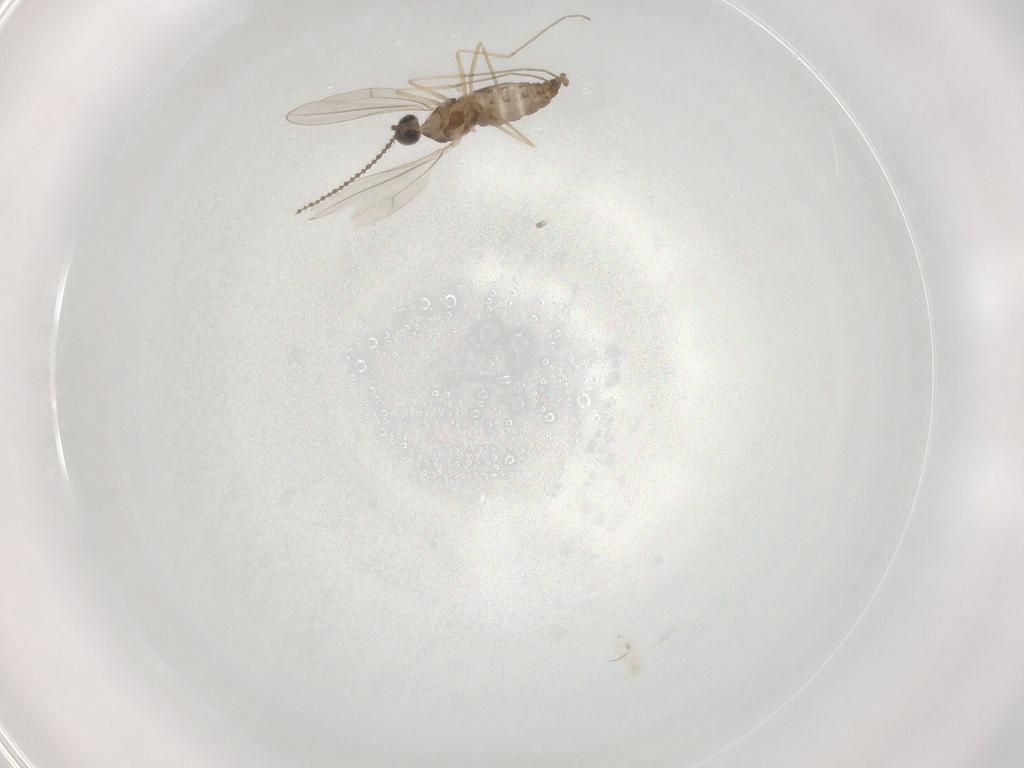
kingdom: Animalia
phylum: Arthropoda
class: Insecta
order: Diptera
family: Cecidomyiidae
